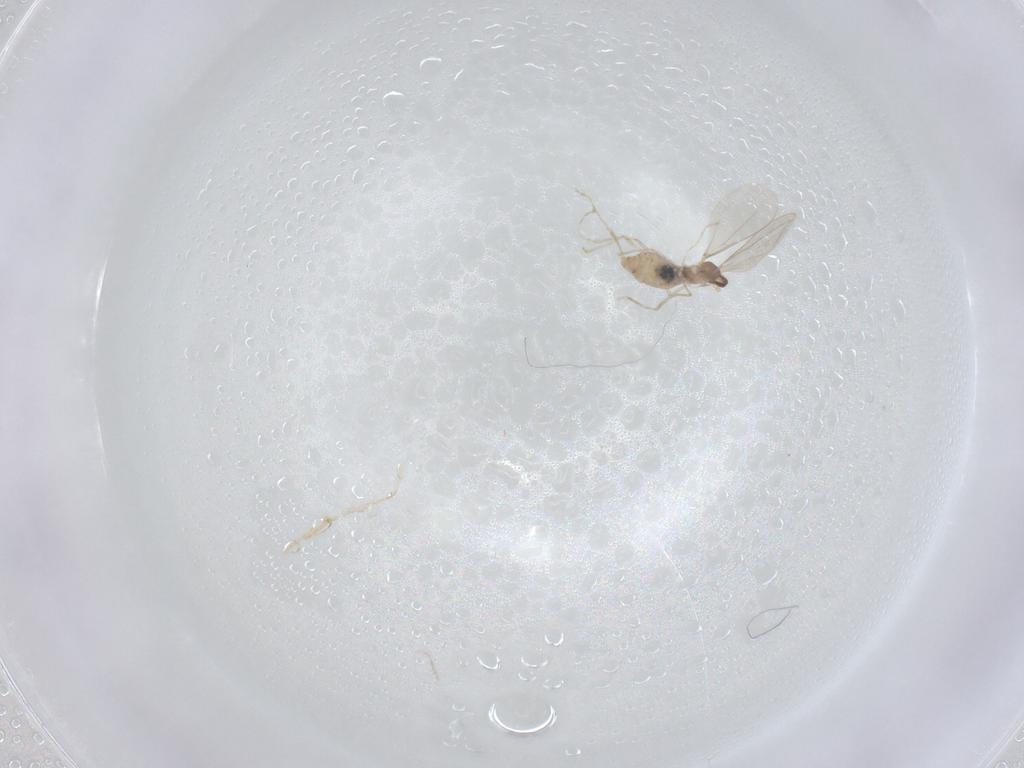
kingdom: Animalia
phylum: Arthropoda
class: Insecta
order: Diptera
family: Cecidomyiidae
